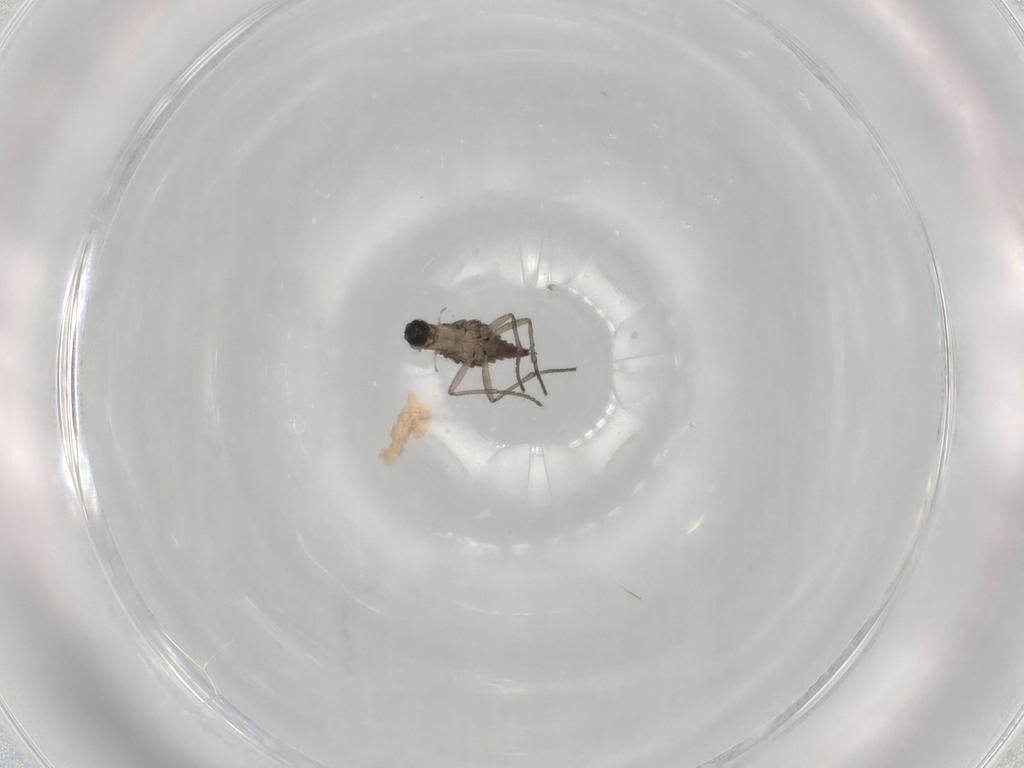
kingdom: Animalia
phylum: Arthropoda
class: Insecta
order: Diptera
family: Sciaridae
